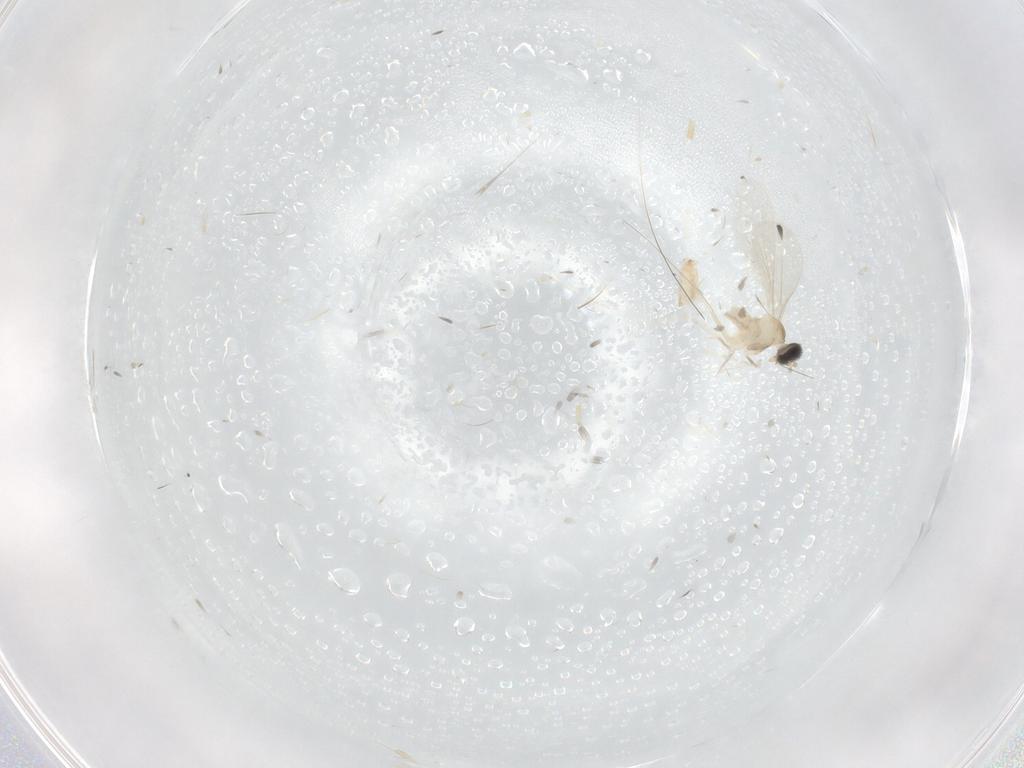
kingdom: Animalia
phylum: Arthropoda
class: Insecta
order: Diptera
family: Cecidomyiidae
